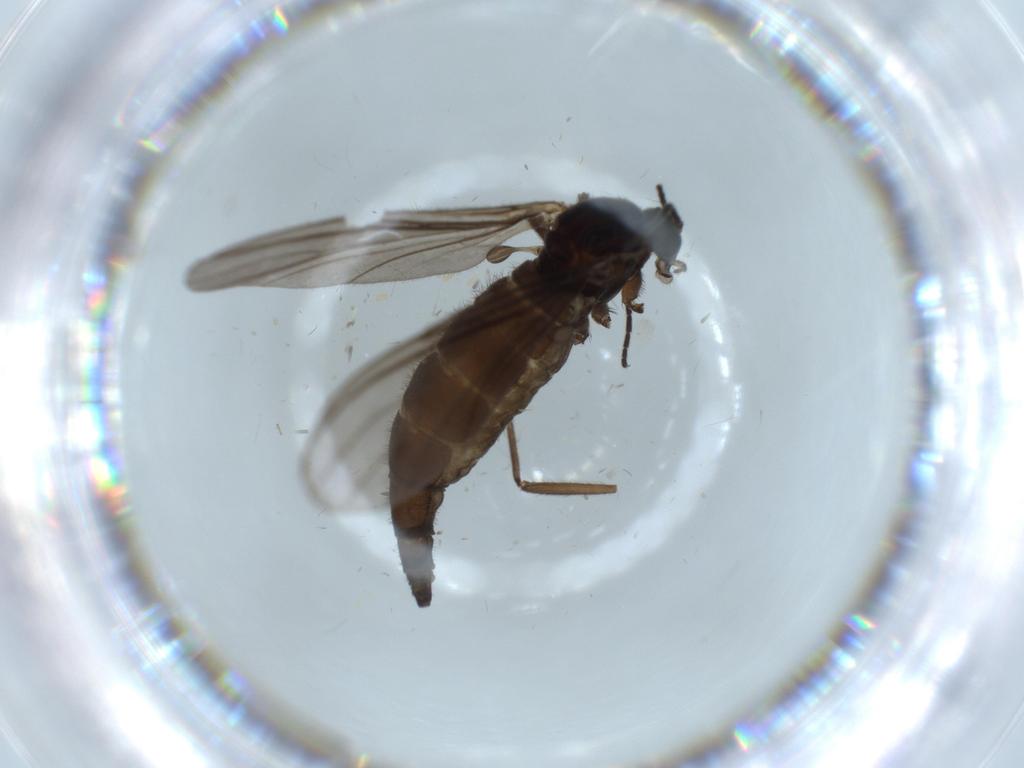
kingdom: Animalia
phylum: Arthropoda
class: Insecta
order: Diptera
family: Sciaridae
